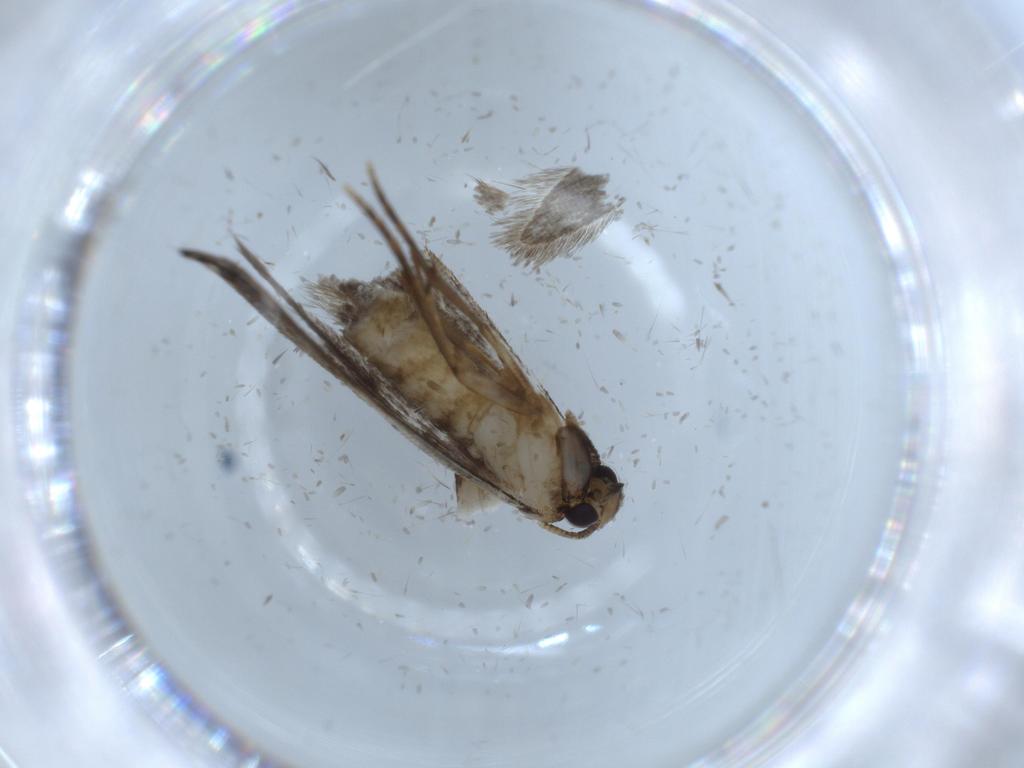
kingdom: Animalia
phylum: Arthropoda
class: Insecta
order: Lepidoptera
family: Tineidae
